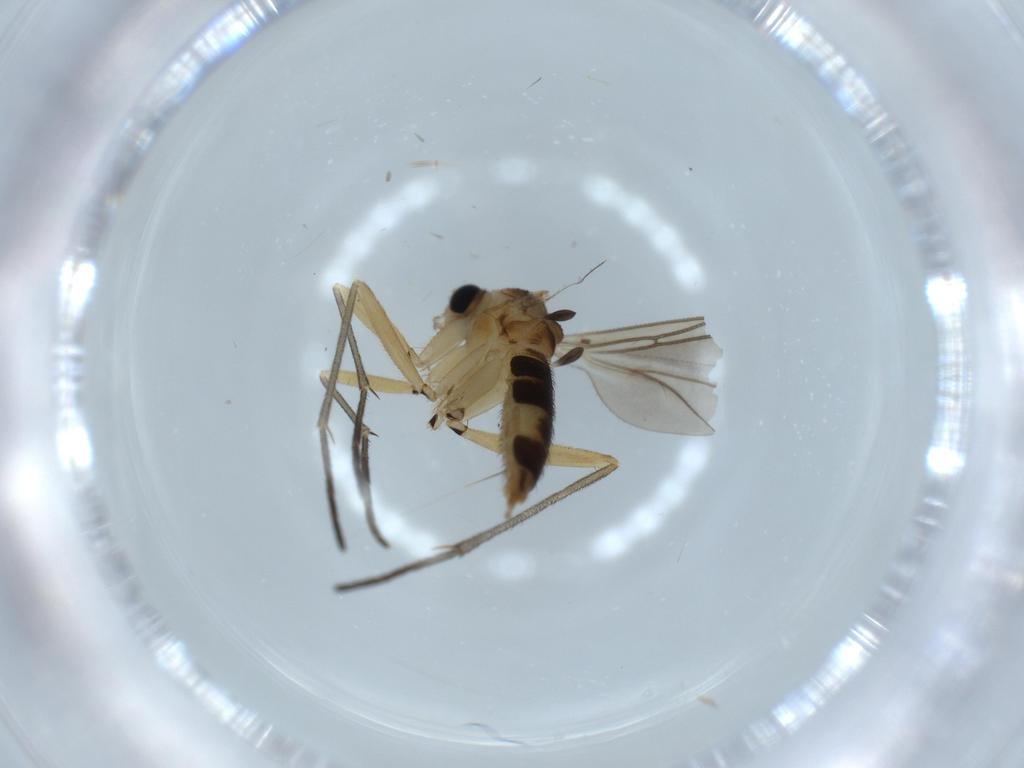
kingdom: Animalia
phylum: Arthropoda
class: Insecta
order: Diptera
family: Sciaridae
